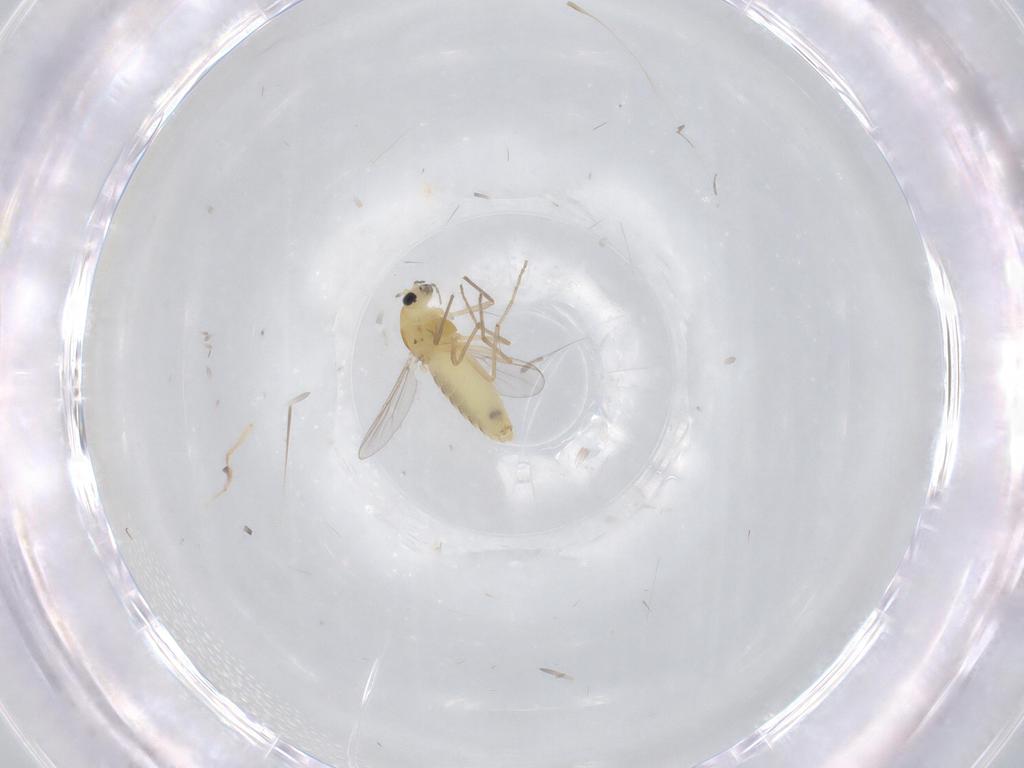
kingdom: Animalia
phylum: Arthropoda
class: Insecta
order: Diptera
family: Chironomidae
